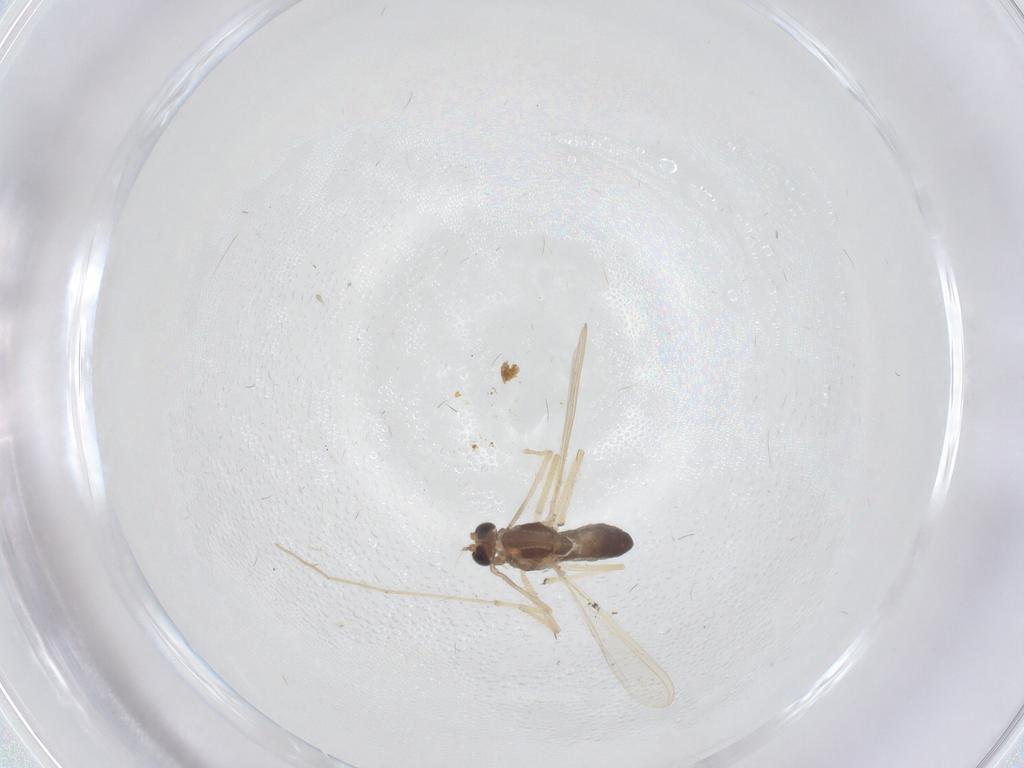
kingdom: Animalia
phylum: Arthropoda
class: Insecta
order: Diptera
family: Chironomidae
